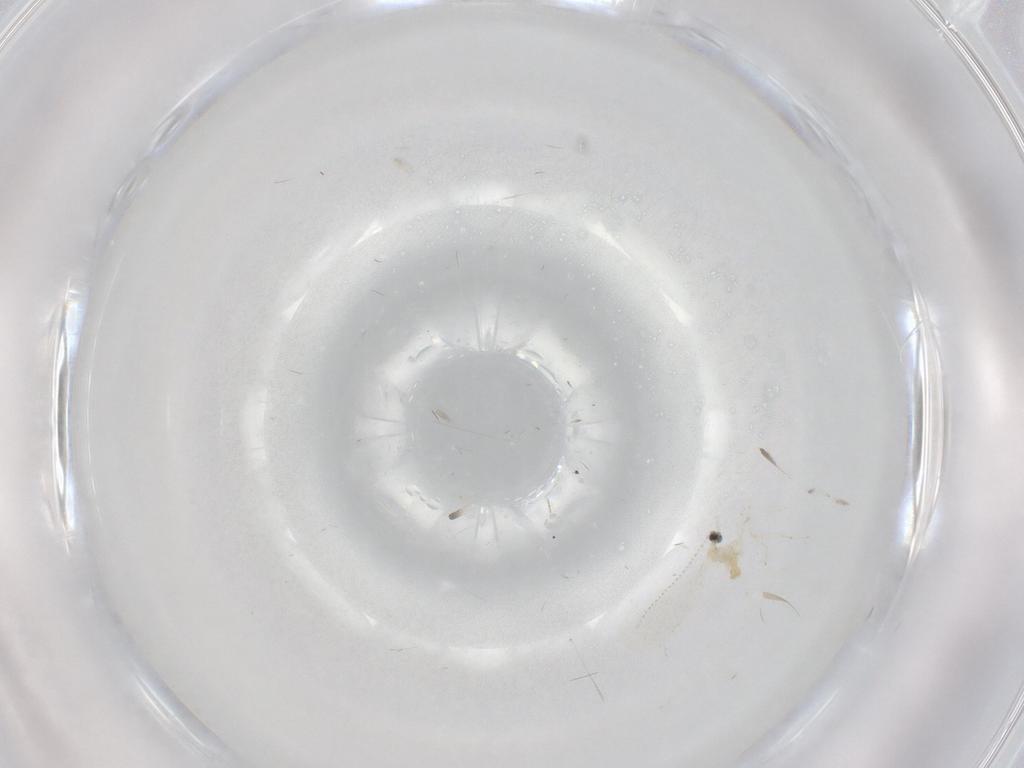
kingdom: Animalia
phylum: Arthropoda
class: Insecta
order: Diptera
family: Cecidomyiidae
